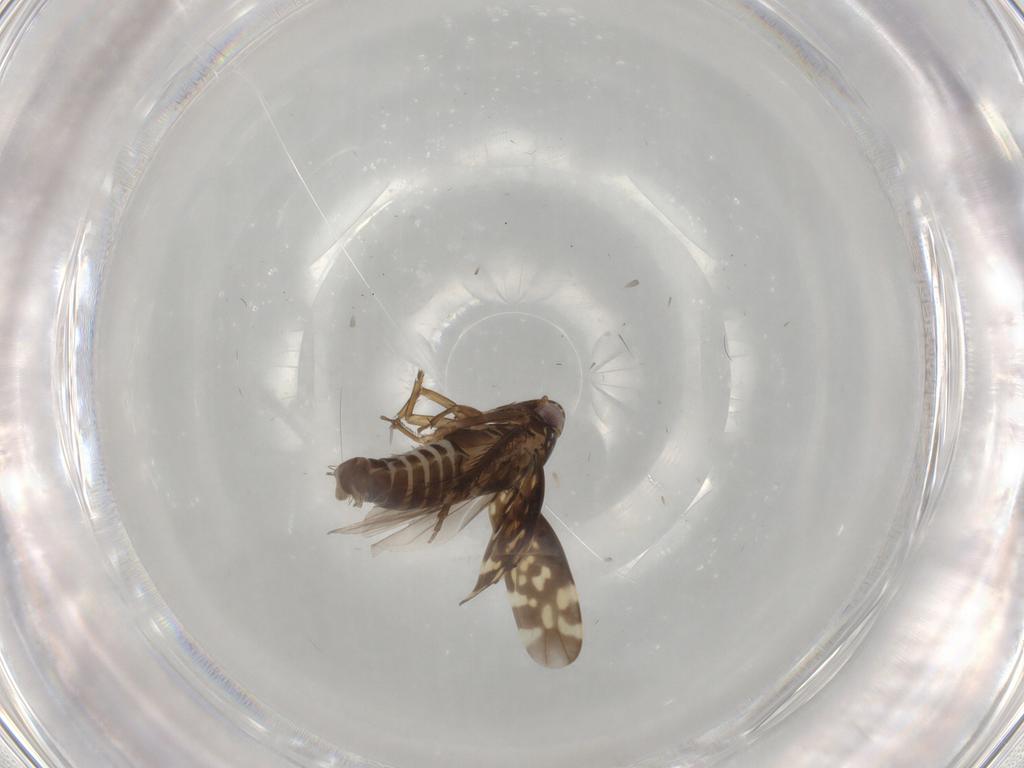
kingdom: Animalia
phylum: Arthropoda
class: Insecta
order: Hemiptera
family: Cicadellidae
